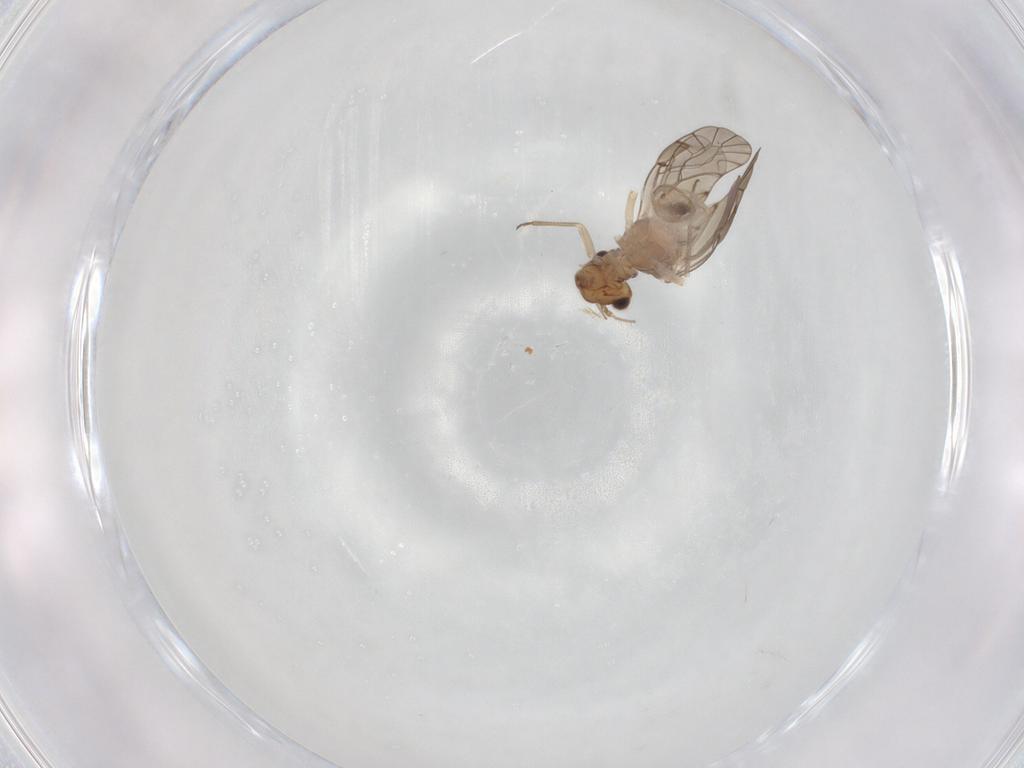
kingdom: Animalia
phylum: Arthropoda
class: Insecta
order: Psocodea
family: Lachesillidae
